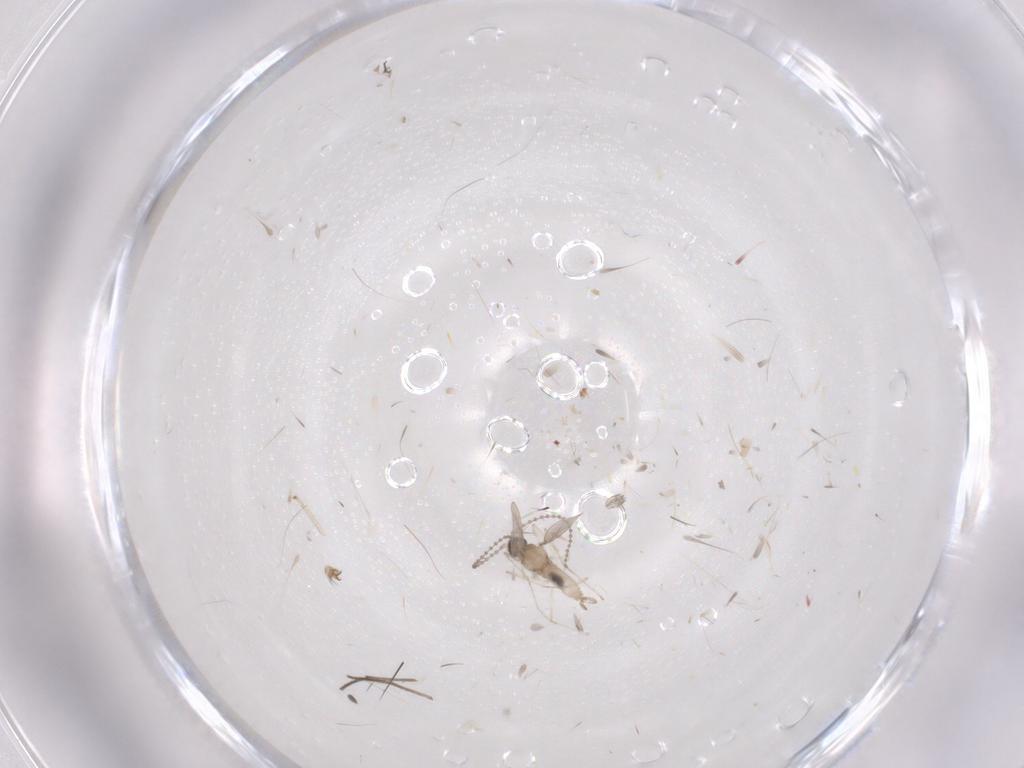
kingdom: Animalia
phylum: Arthropoda
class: Insecta
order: Diptera
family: Cecidomyiidae
